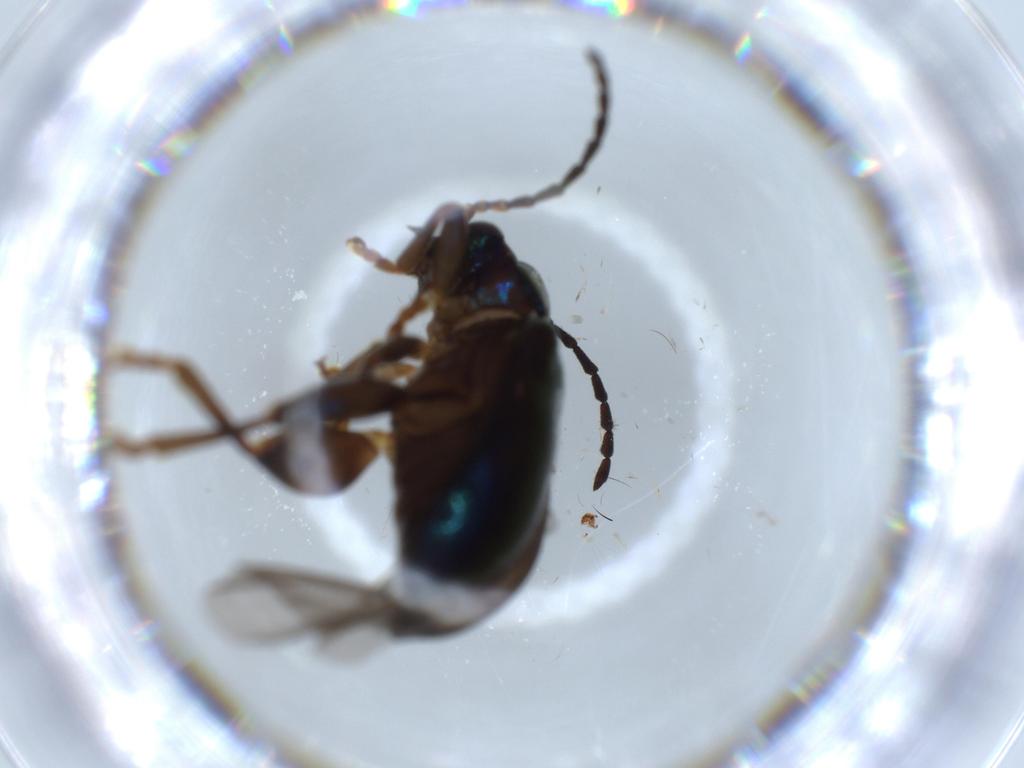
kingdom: Animalia
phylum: Arthropoda
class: Insecta
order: Coleoptera
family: Chrysomelidae
